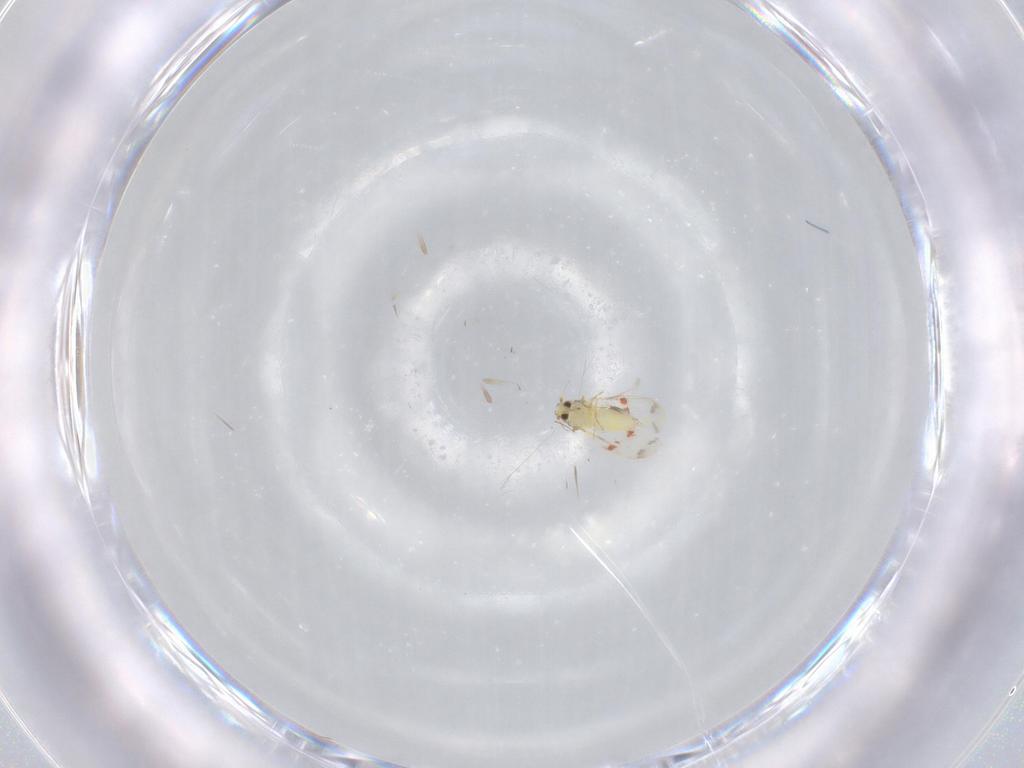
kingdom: Animalia
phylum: Arthropoda
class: Insecta
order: Hemiptera
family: Aleyrodidae
